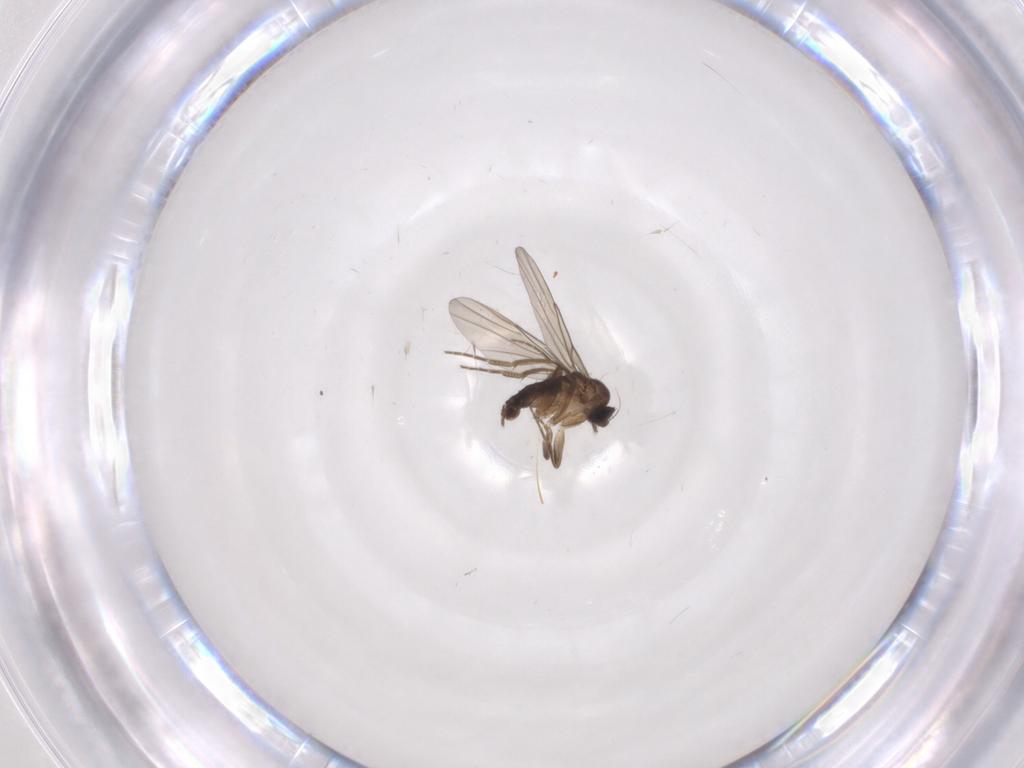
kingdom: Animalia
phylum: Arthropoda
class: Insecta
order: Diptera
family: Phoridae
